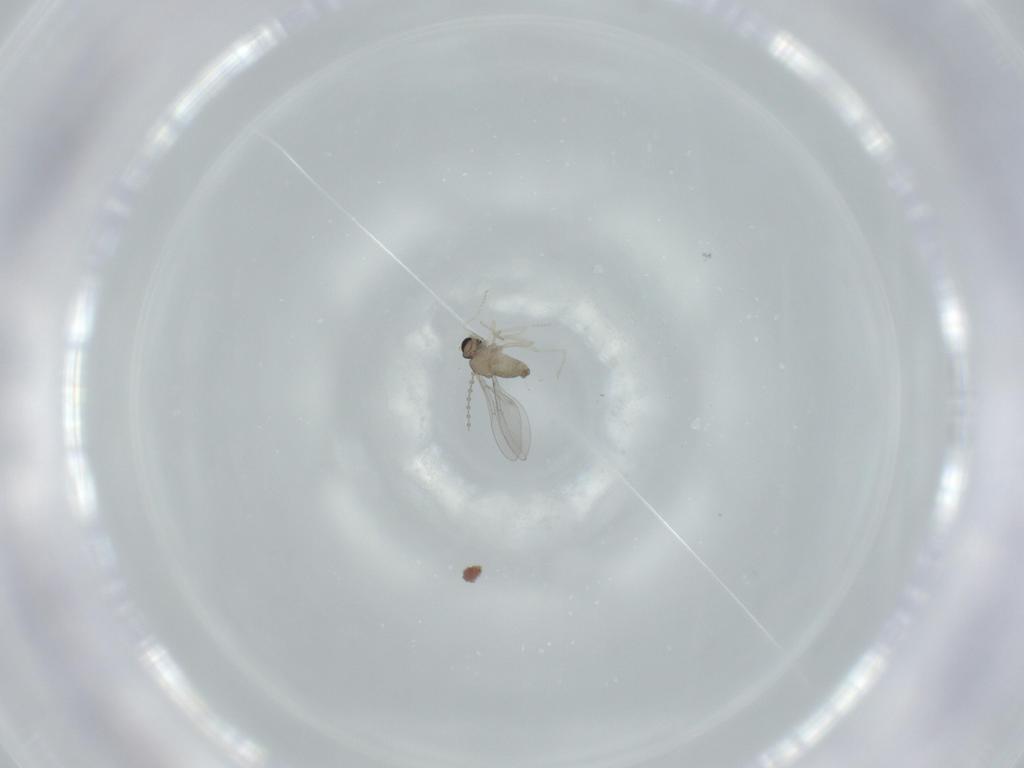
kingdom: Animalia
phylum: Arthropoda
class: Insecta
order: Diptera
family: Cecidomyiidae
